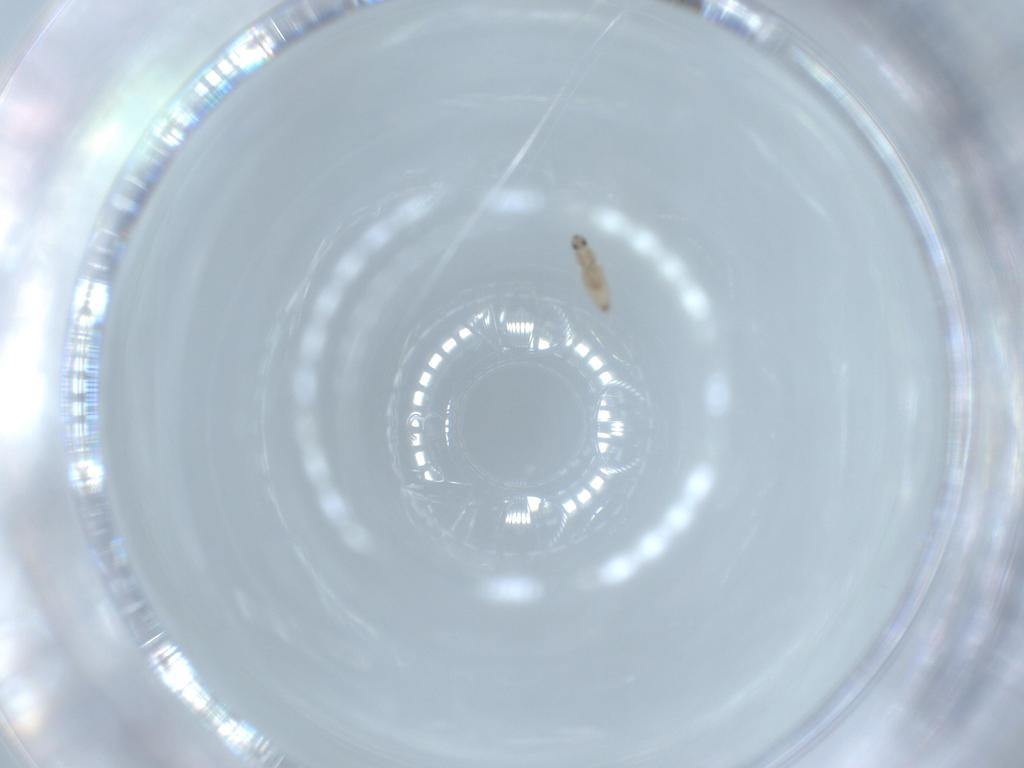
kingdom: Animalia
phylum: Arthropoda
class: Insecta
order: Diptera
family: Cecidomyiidae
